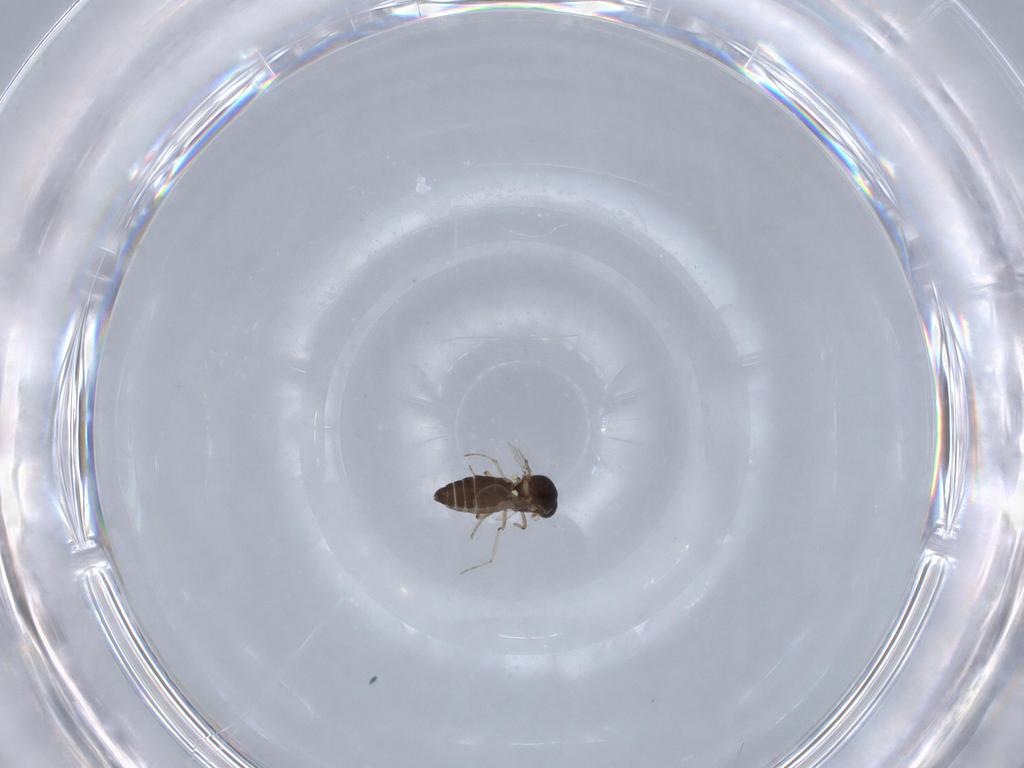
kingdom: Animalia
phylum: Arthropoda
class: Insecta
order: Diptera
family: Ceratopogonidae
